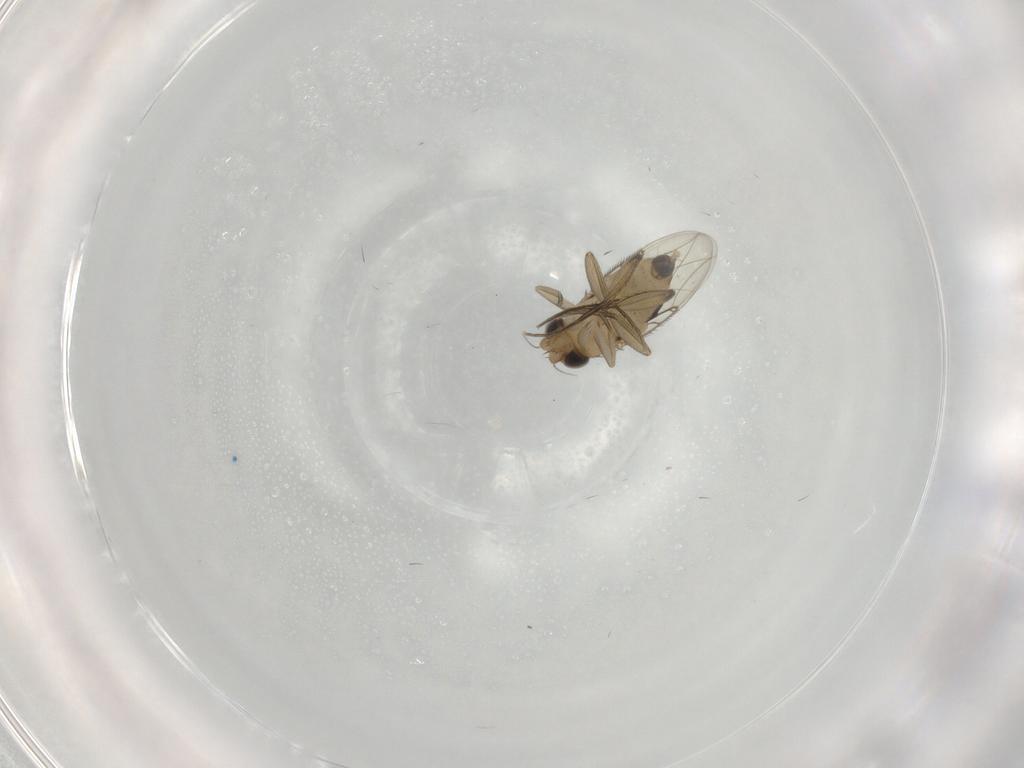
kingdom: Animalia
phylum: Arthropoda
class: Insecta
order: Diptera
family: Phoridae
